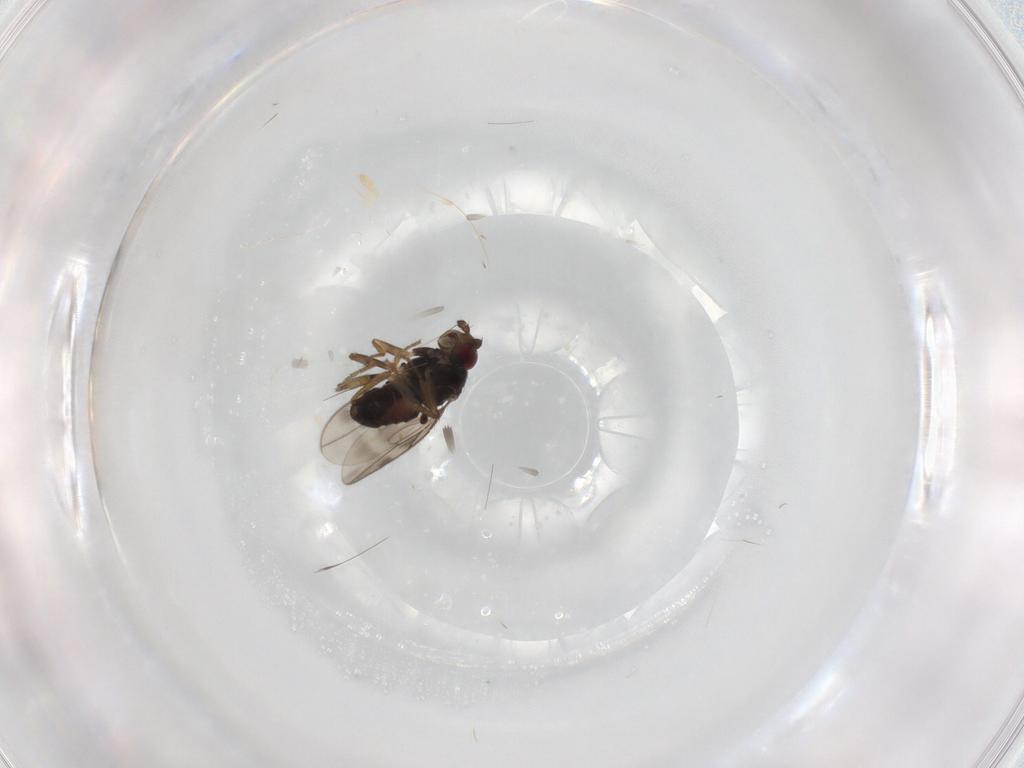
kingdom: Animalia
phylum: Arthropoda
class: Insecta
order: Diptera
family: Sphaeroceridae
